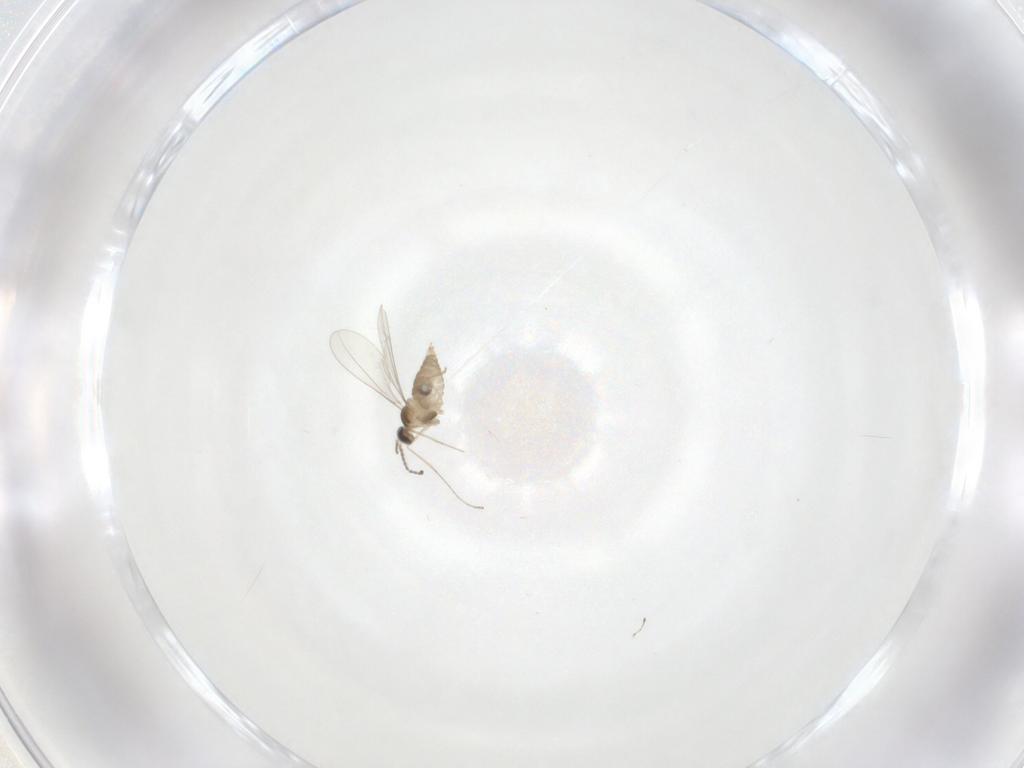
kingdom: Animalia
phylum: Arthropoda
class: Insecta
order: Diptera
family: Cecidomyiidae
